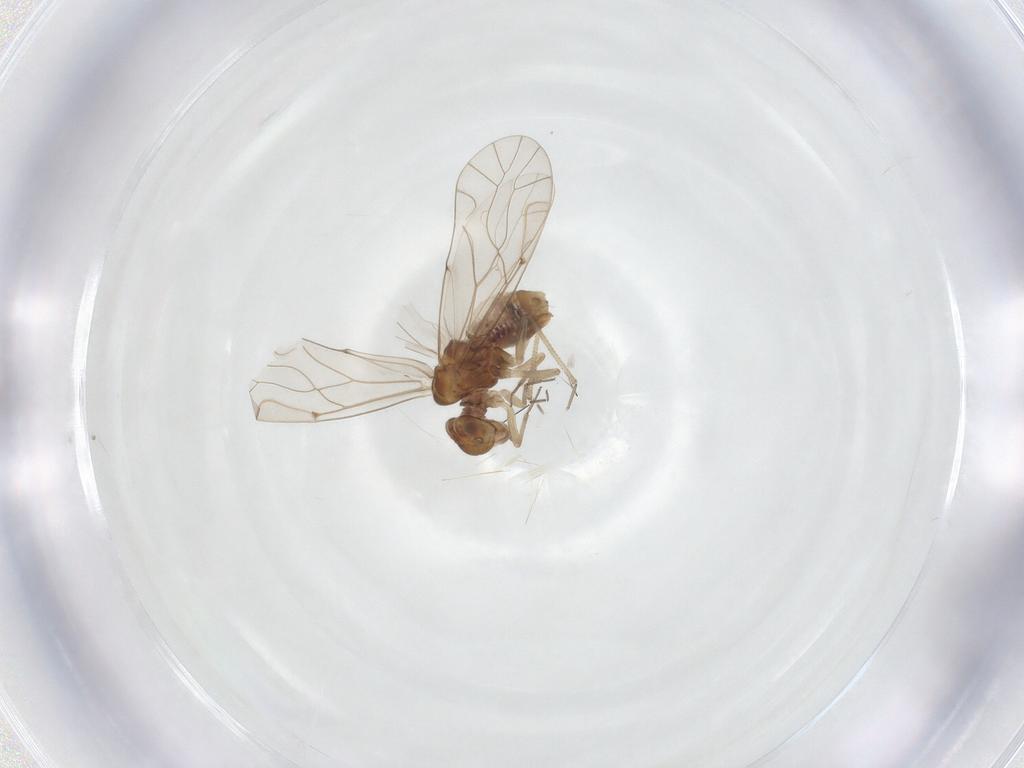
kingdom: Animalia
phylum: Arthropoda
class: Insecta
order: Psocodea
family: Lachesillidae
